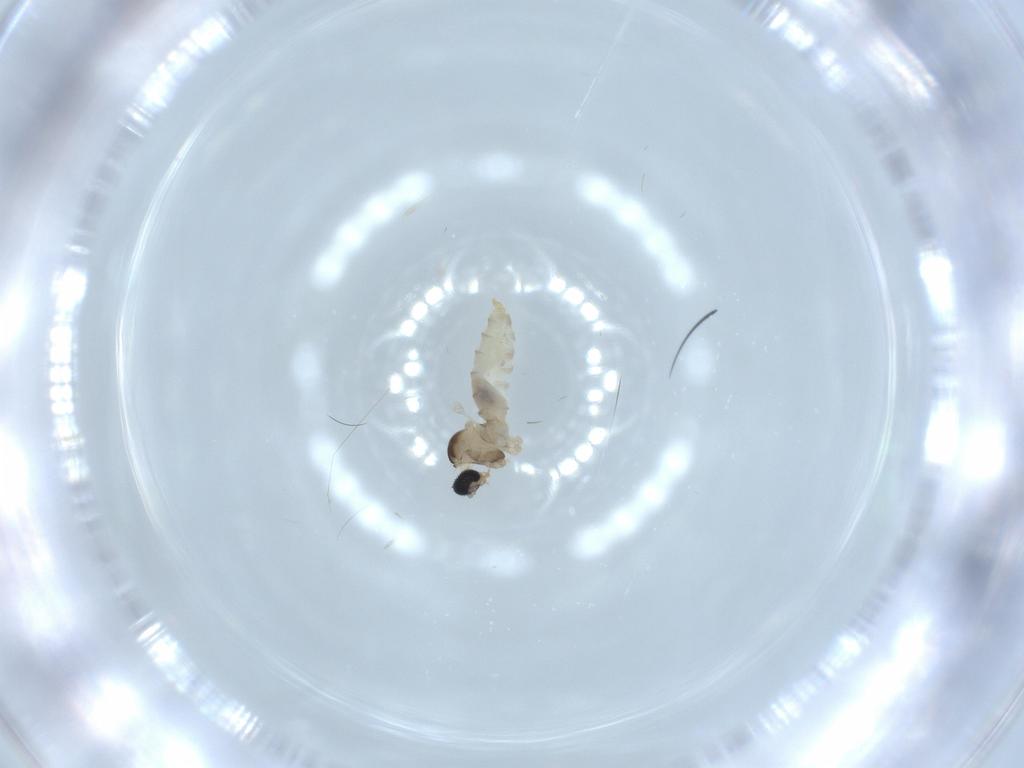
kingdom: Animalia
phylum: Arthropoda
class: Insecta
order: Diptera
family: Cecidomyiidae
